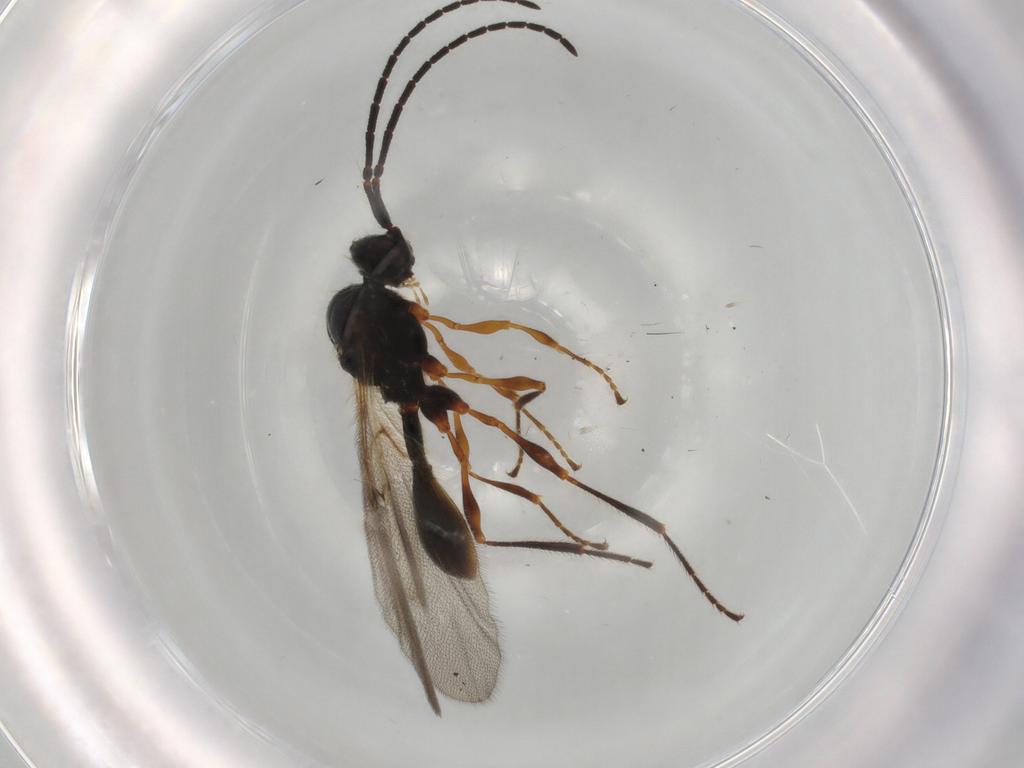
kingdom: Animalia
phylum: Arthropoda
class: Insecta
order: Hymenoptera
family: Diapriidae
